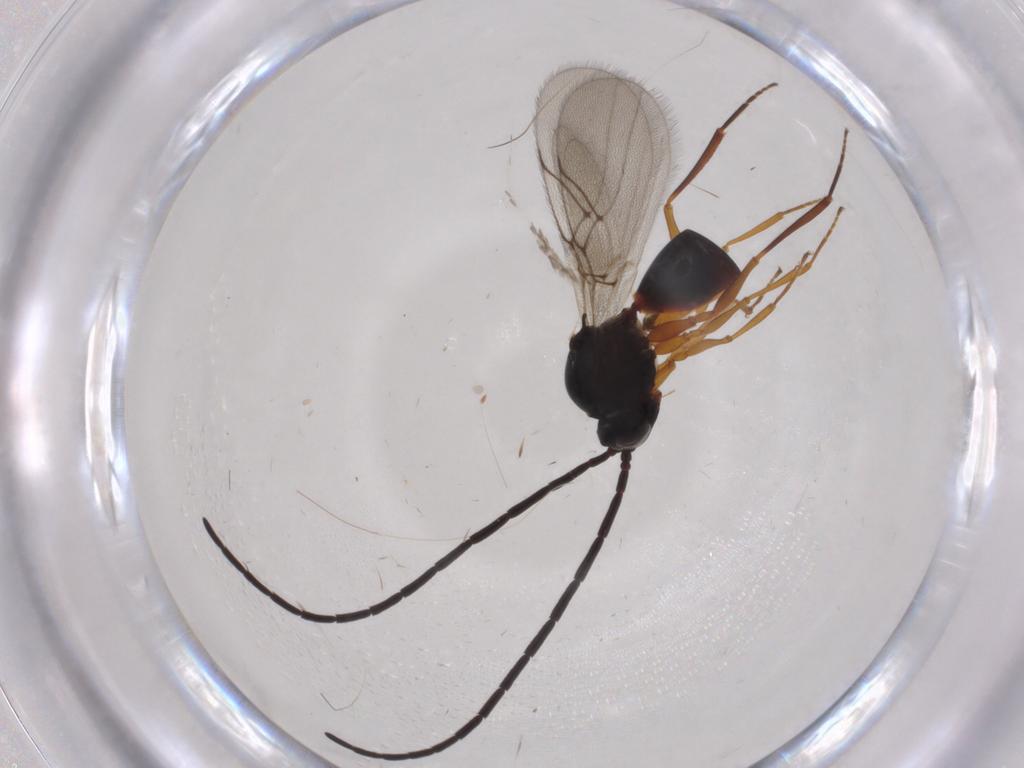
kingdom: Animalia
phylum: Arthropoda
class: Insecta
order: Hymenoptera
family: Figitidae
